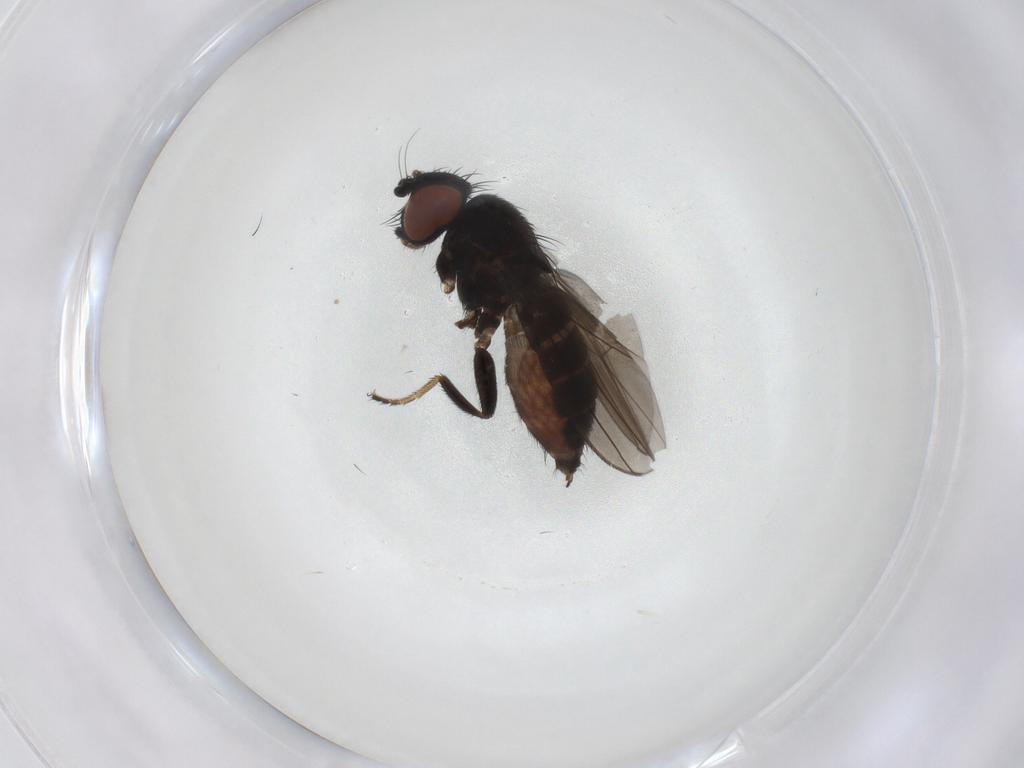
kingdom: Animalia
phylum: Arthropoda
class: Insecta
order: Diptera
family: Milichiidae
